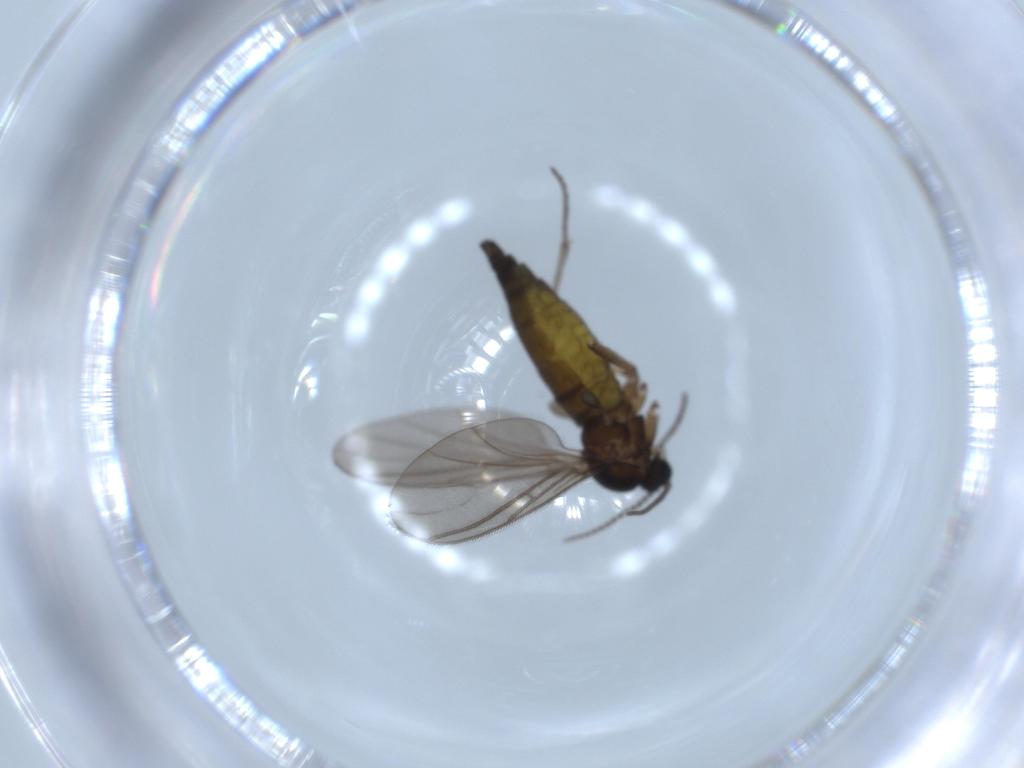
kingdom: Animalia
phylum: Arthropoda
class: Insecta
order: Diptera
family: Sciaridae
